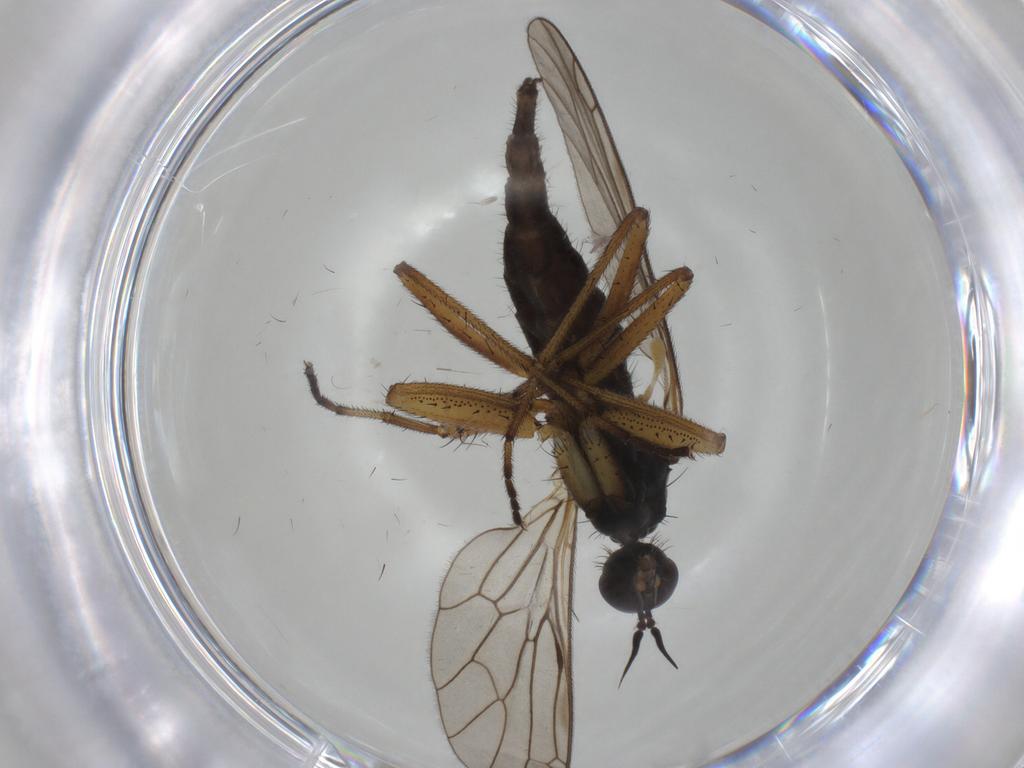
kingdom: Animalia
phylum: Arthropoda
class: Insecta
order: Diptera
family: Empididae
